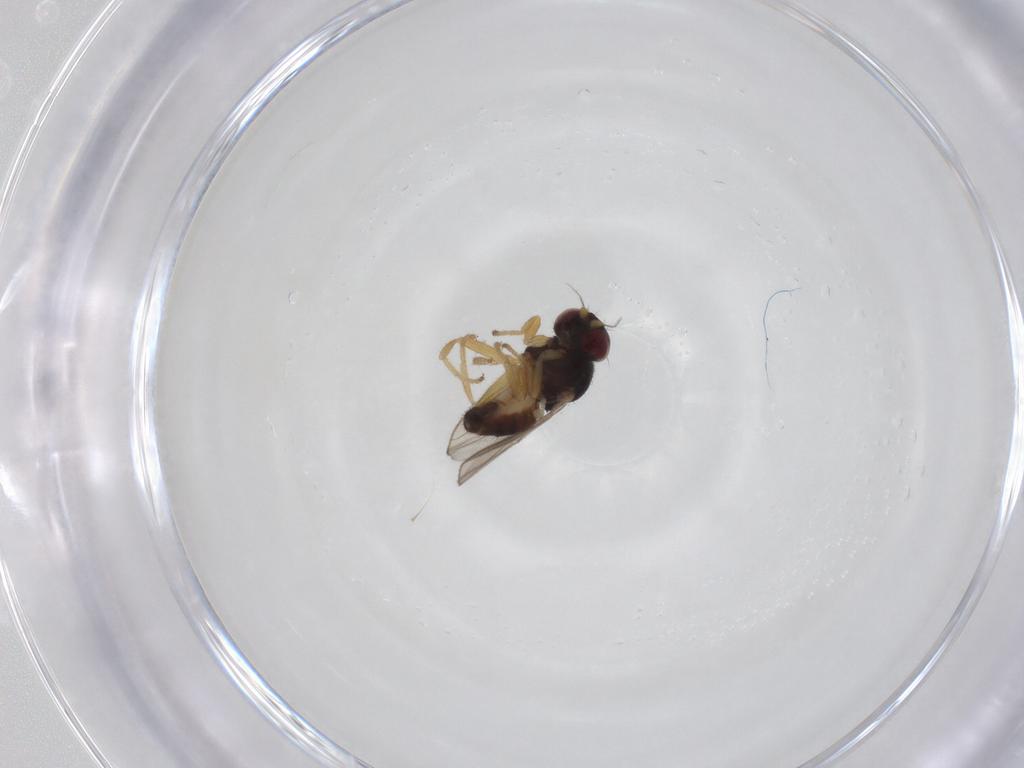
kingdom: Animalia
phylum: Arthropoda
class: Insecta
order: Diptera
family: Chloropidae
